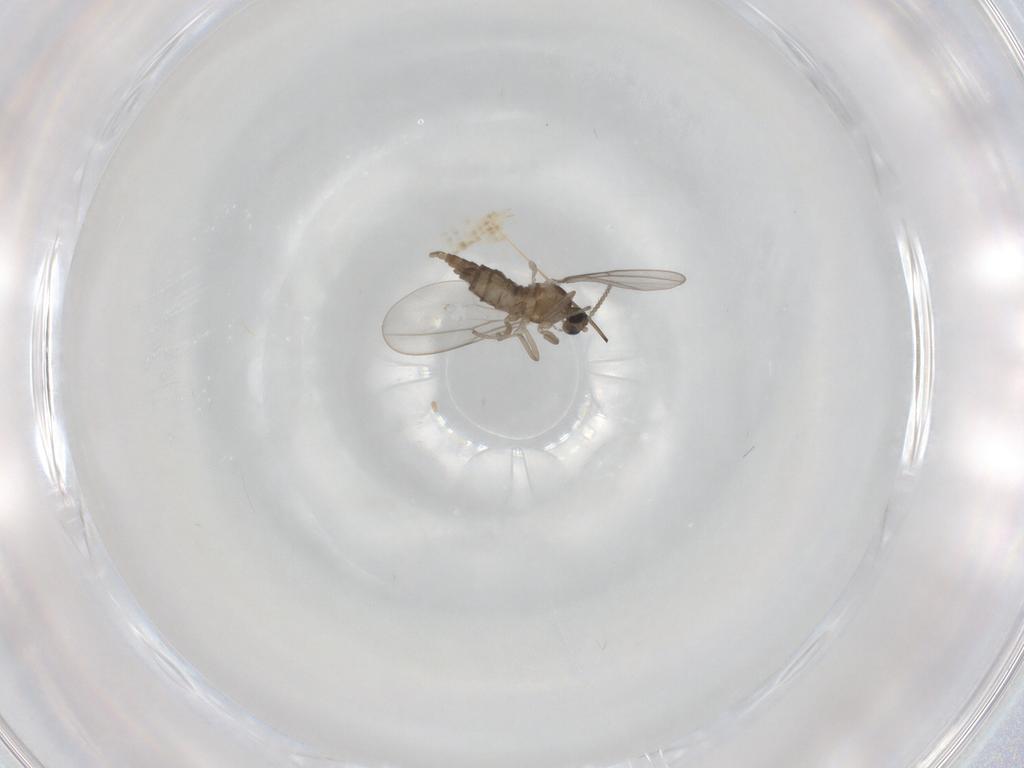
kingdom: Animalia
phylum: Arthropoda
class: Insecta
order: Diptera
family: Cecidomyiidae
